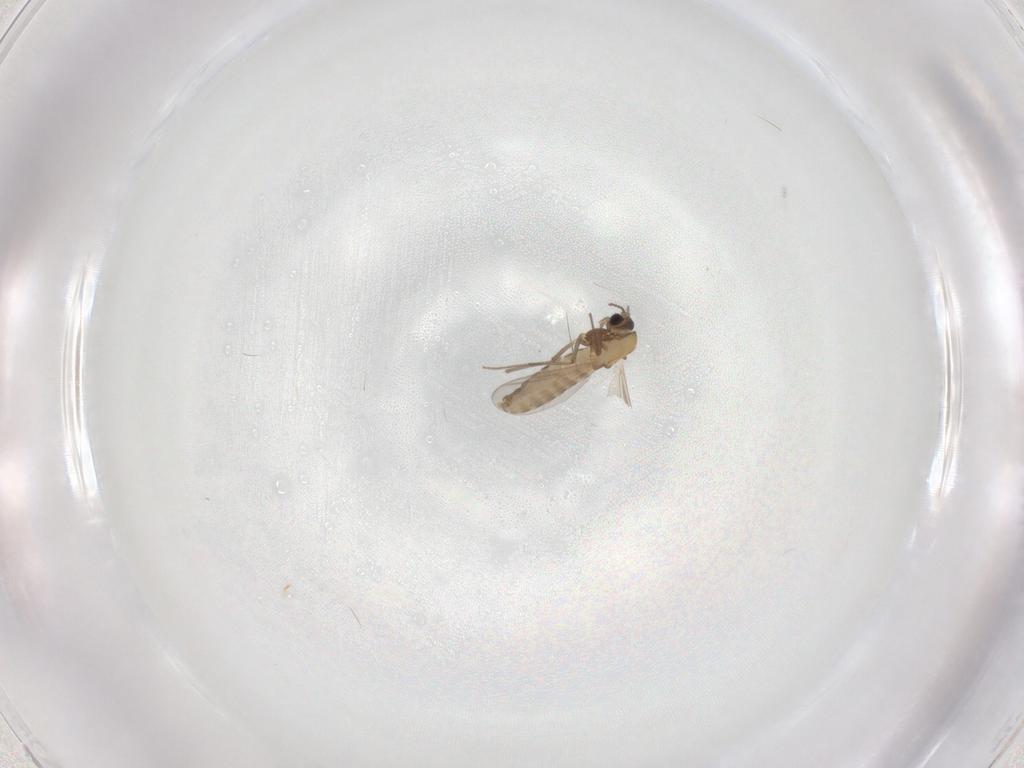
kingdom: Animalia
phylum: Arthropoda
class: Insecta
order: Diptera
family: Chironomidae
